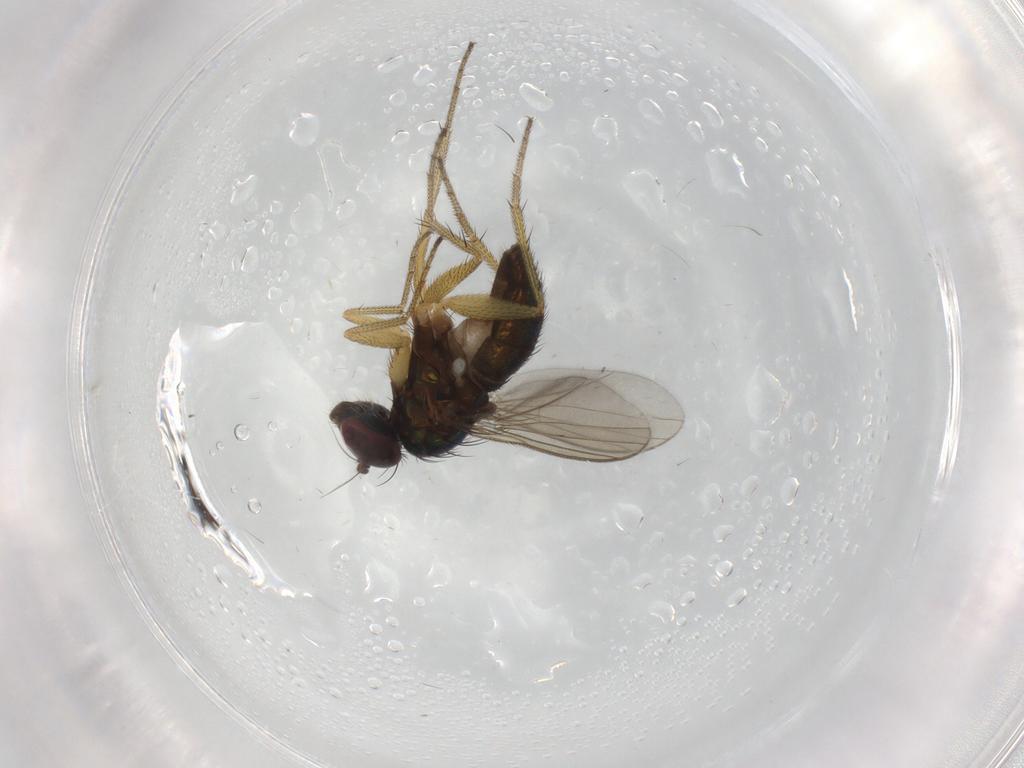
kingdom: Animalia
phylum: Arthropoda
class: Insecta
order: Diptera
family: Dolichopodidae
